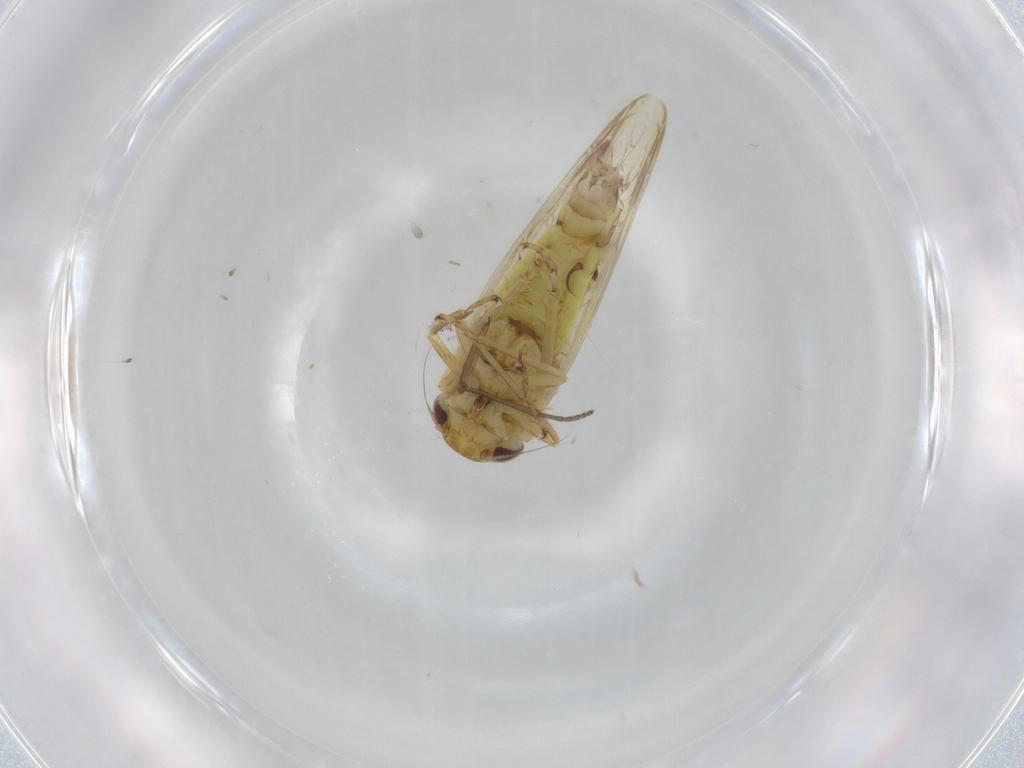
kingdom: Animalia
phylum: Arthropoda
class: Insecta
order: Hemiptera
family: Cicadellidae
